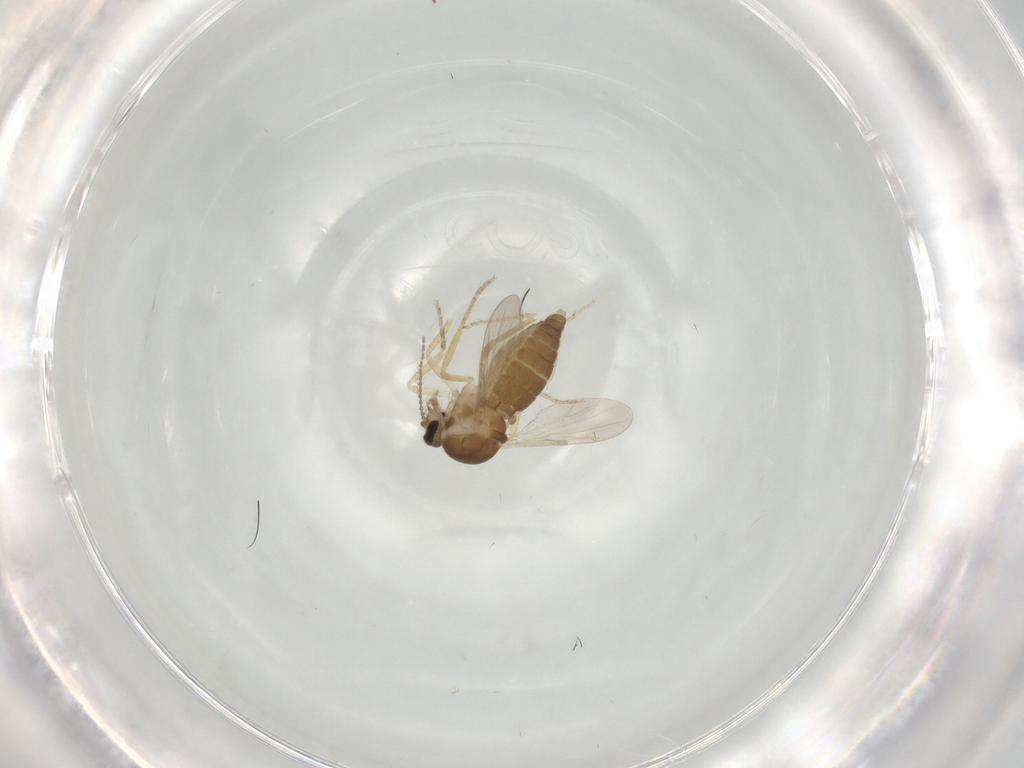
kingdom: Animalia
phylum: Arthropoda
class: Insecta
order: Diptera
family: Ceratopogonidae
